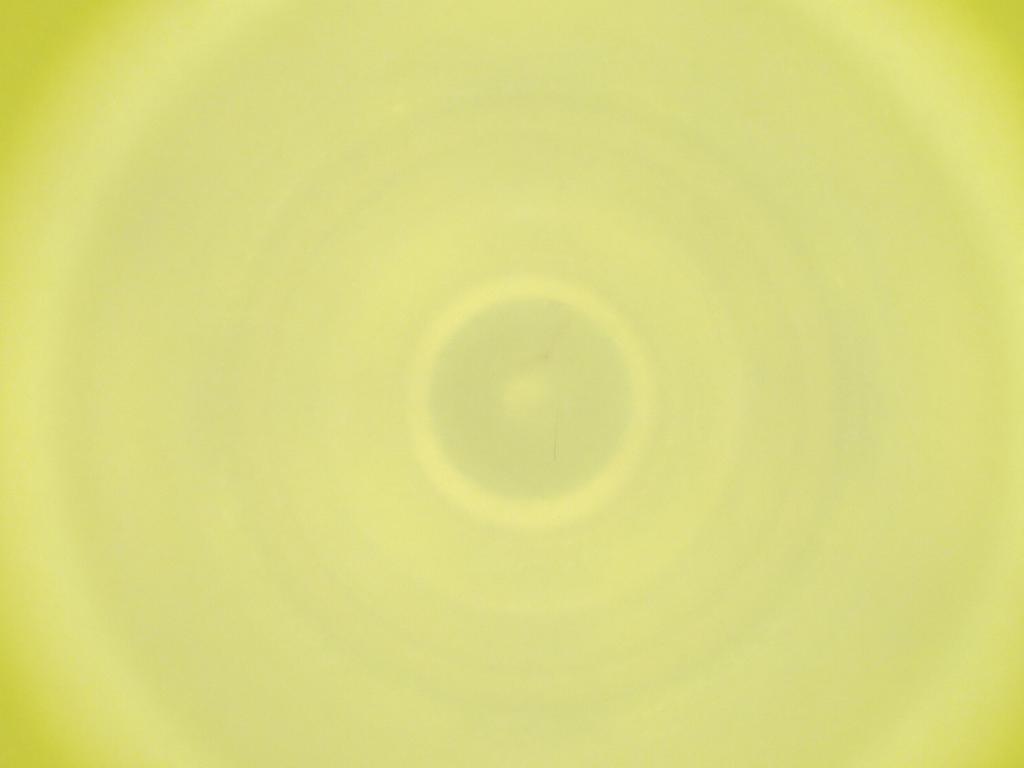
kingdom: Animalia
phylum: Arthropoda
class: Insecta
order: Diptera
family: Cecidomyiidae
